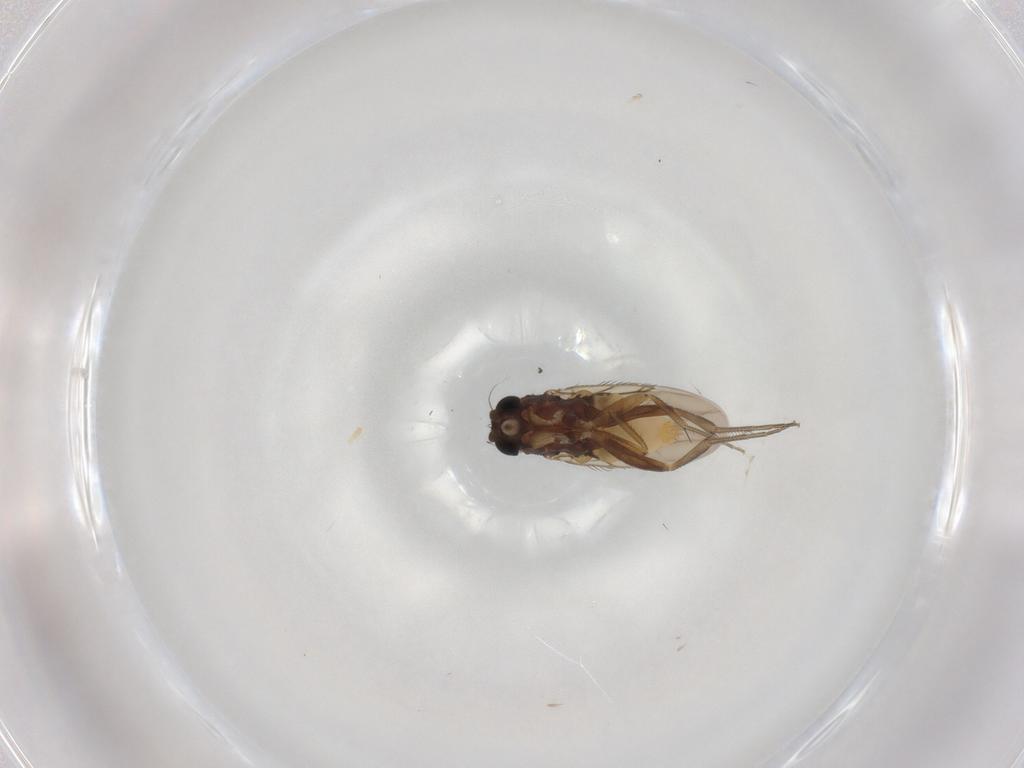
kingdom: Animalia
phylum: Arthropoda
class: Insecta
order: Diptera
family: Phoridae
